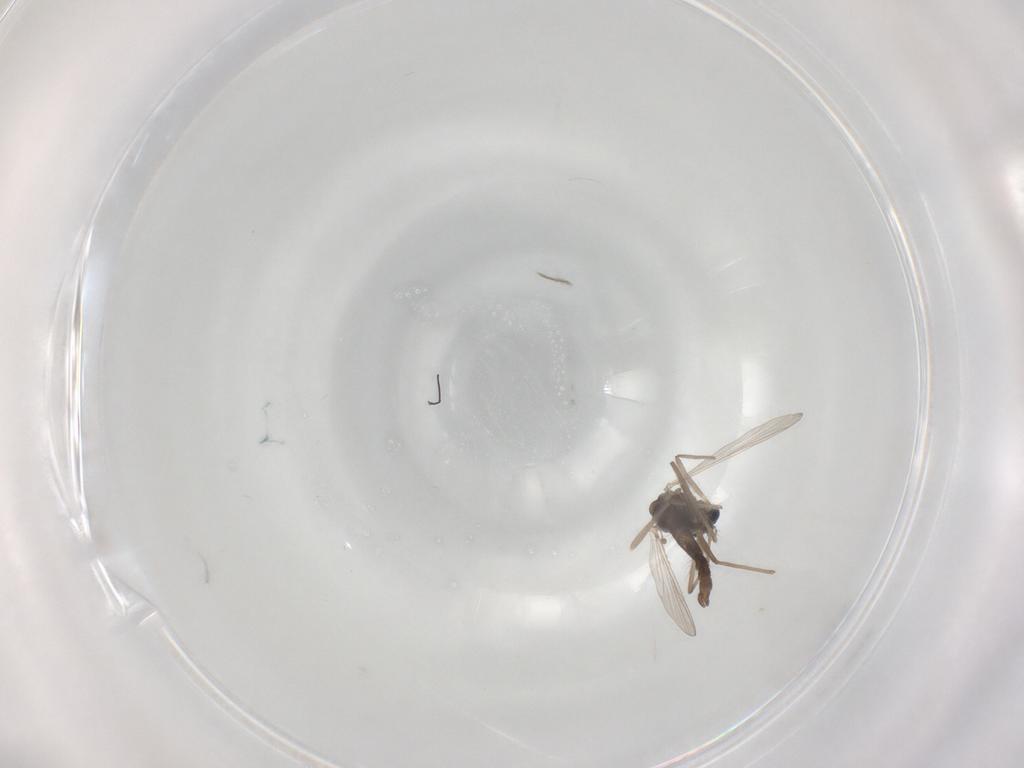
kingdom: Animalia
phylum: Arthropoda
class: Insecta
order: Diptera
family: Chironomidae
